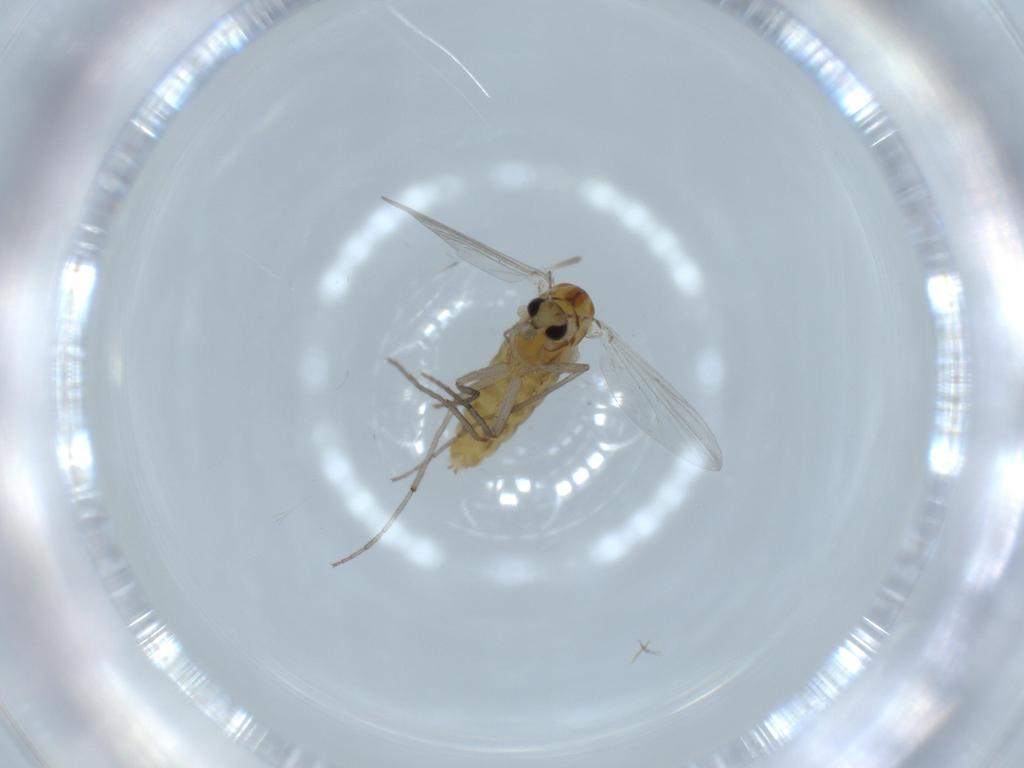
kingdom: Animalia
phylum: Arthropoda
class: Insecta
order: Diptera
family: Chironomidae
